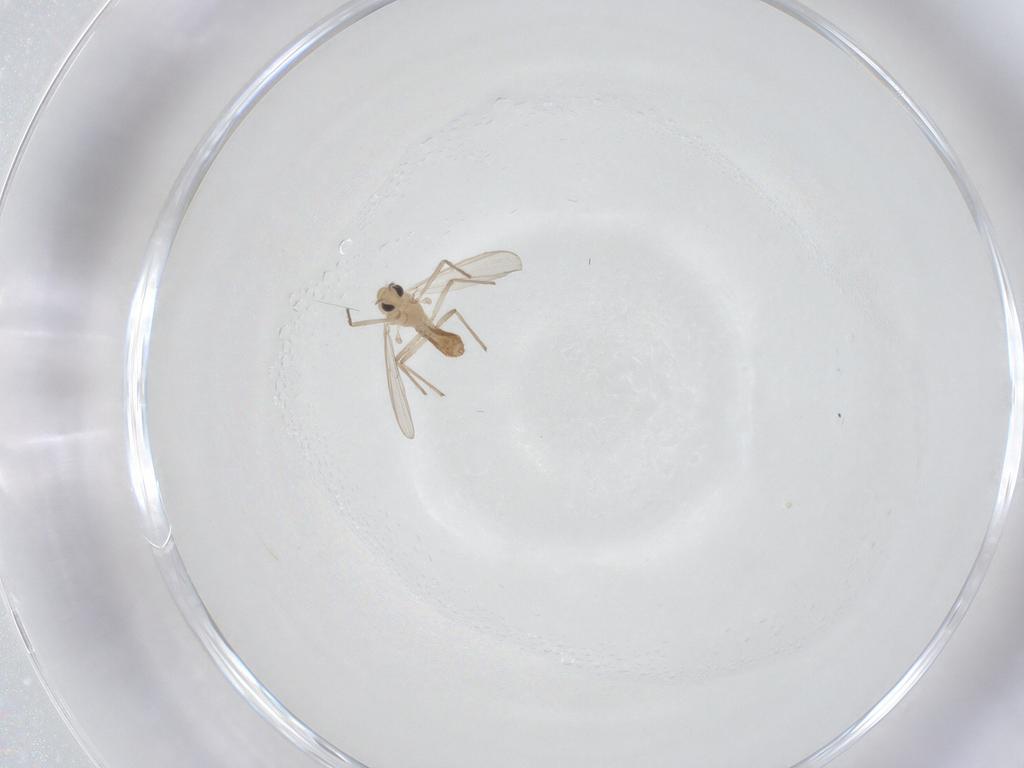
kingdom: Animalia
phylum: Arthropoda
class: Insecta
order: Diptera
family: Chironomidae
